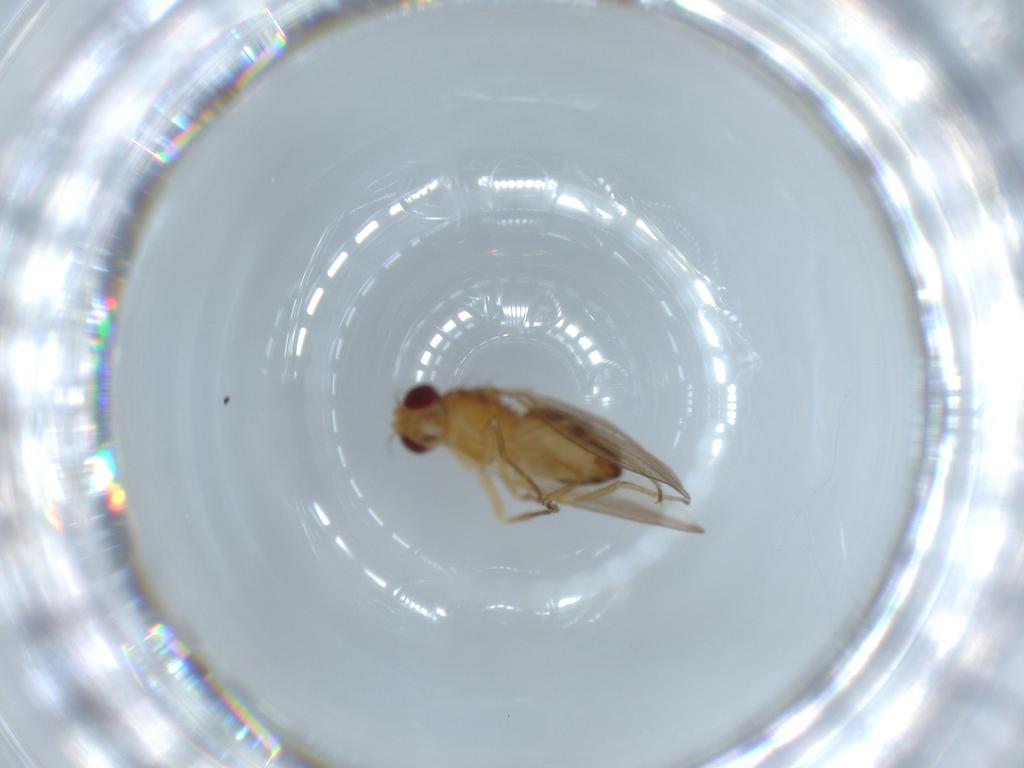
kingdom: Animalia
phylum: Arthropoda
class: Insecta
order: Diptera
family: Drosophilidae
